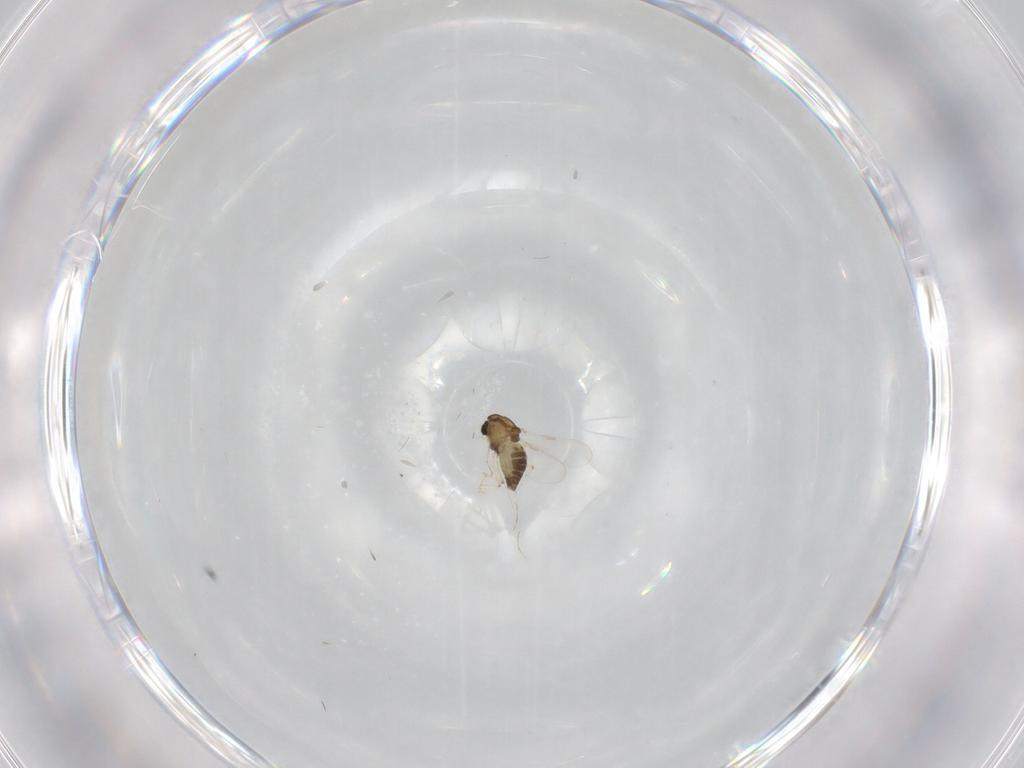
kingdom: Animalia
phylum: Arthropoda
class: Insecta
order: Diptera
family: Chironomidae
